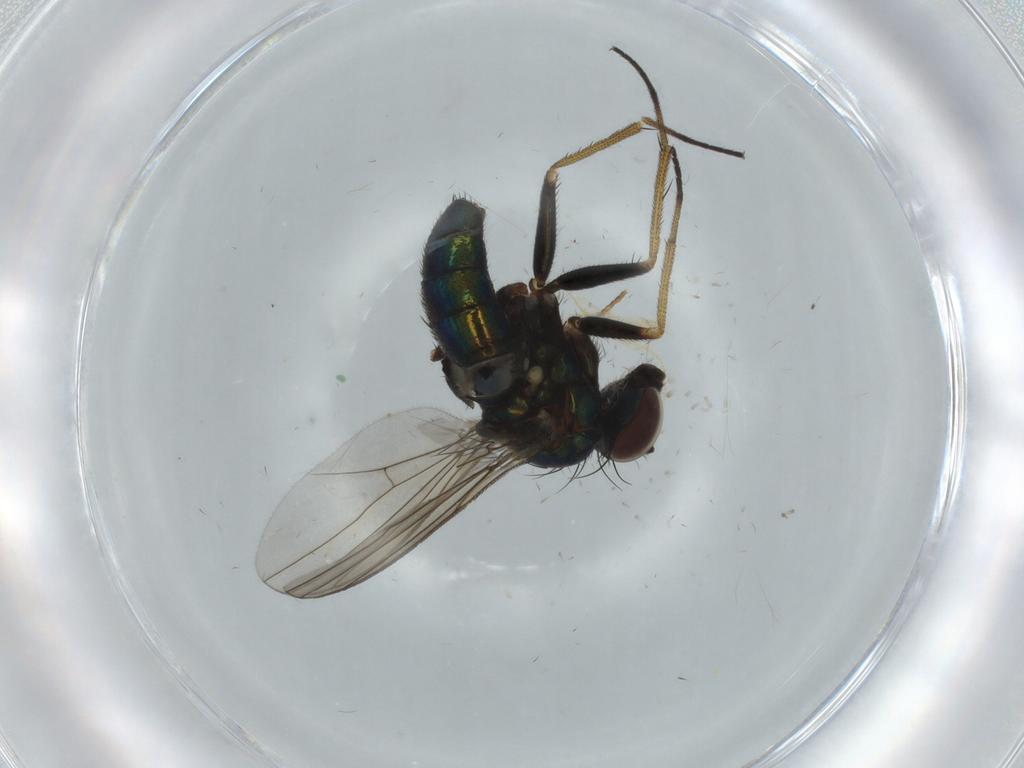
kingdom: Animalia
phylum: Arthropoda
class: Insecta
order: Diptera
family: Chloropidae
